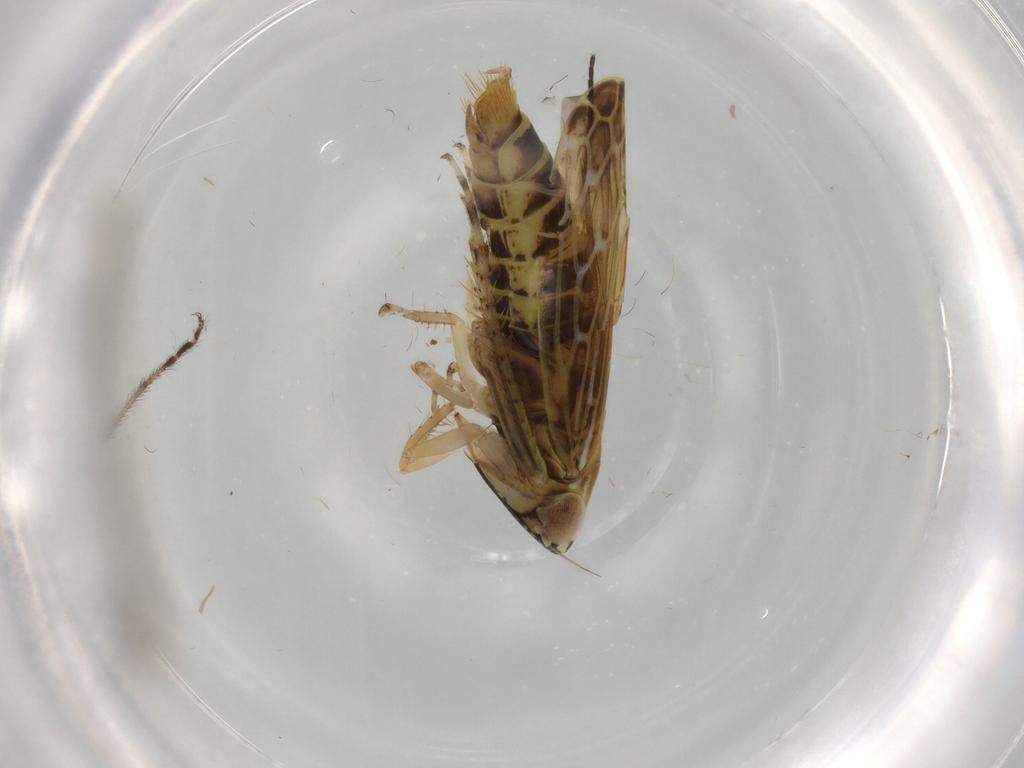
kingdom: Animalia
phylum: Arthropoda
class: Insecta
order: Hemiptera
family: Cicadellidae
